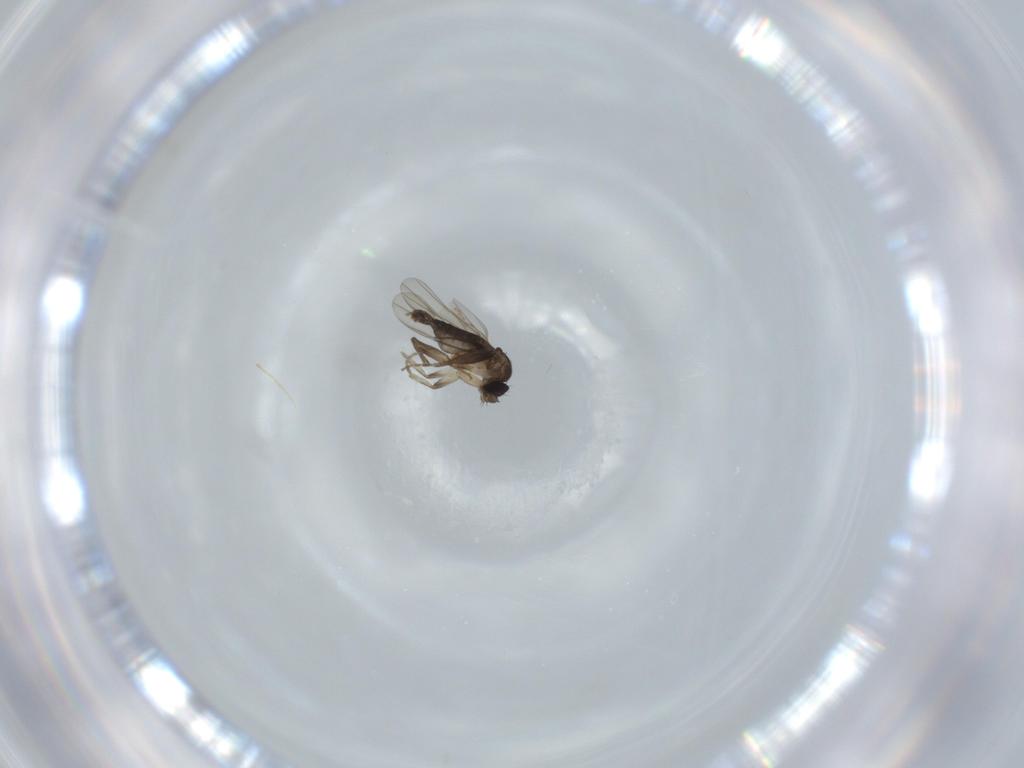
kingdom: Animalia
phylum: Arthropoda
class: Insecta
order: Diptera
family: Phoridae
